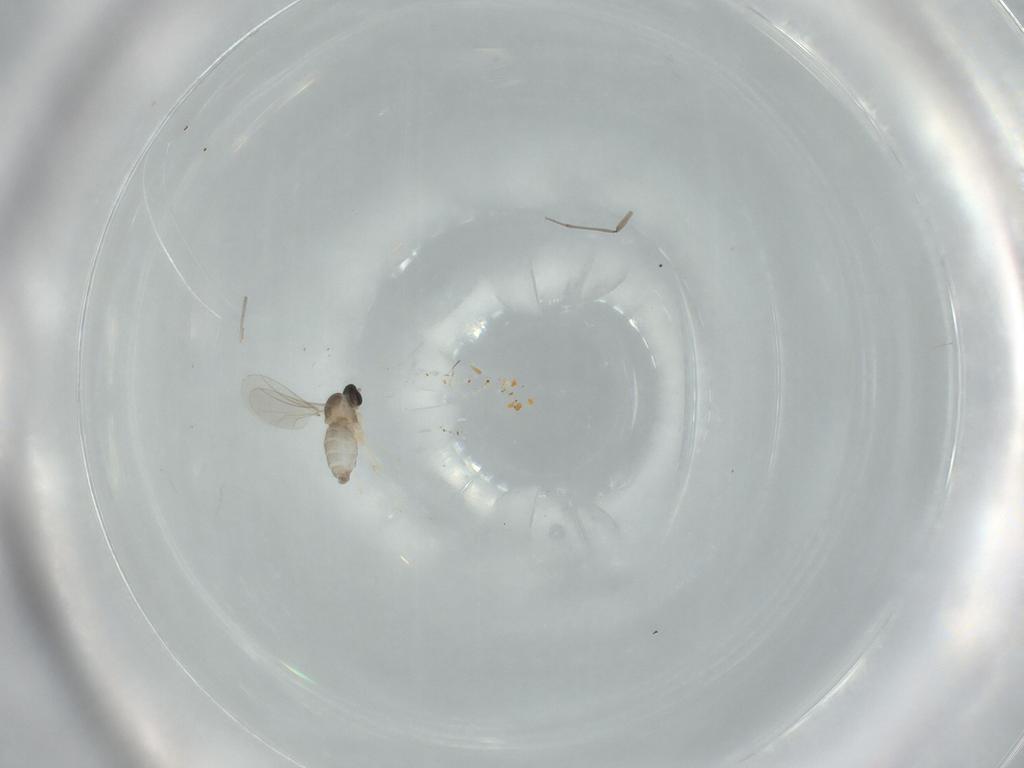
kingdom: Animalia
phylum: Arthropoda
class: Insecta
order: Diptera
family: Cecidomyiidae
